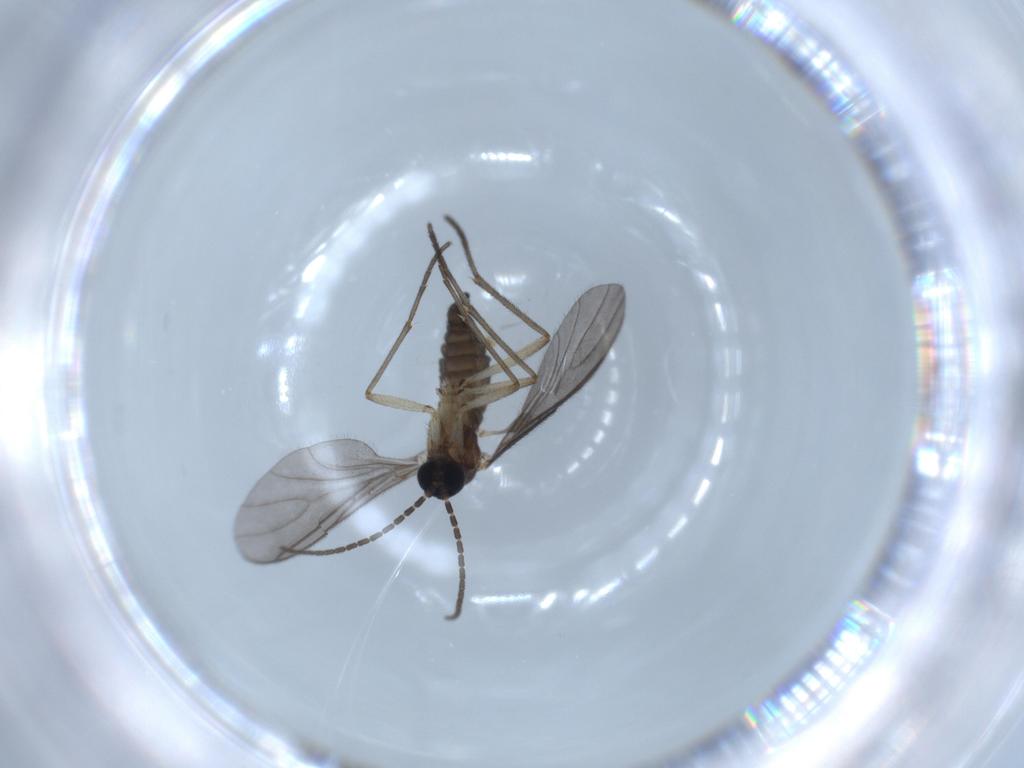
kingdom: Animalia
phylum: Arthropoda
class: Insecta
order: Diptera
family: Sciaridae
